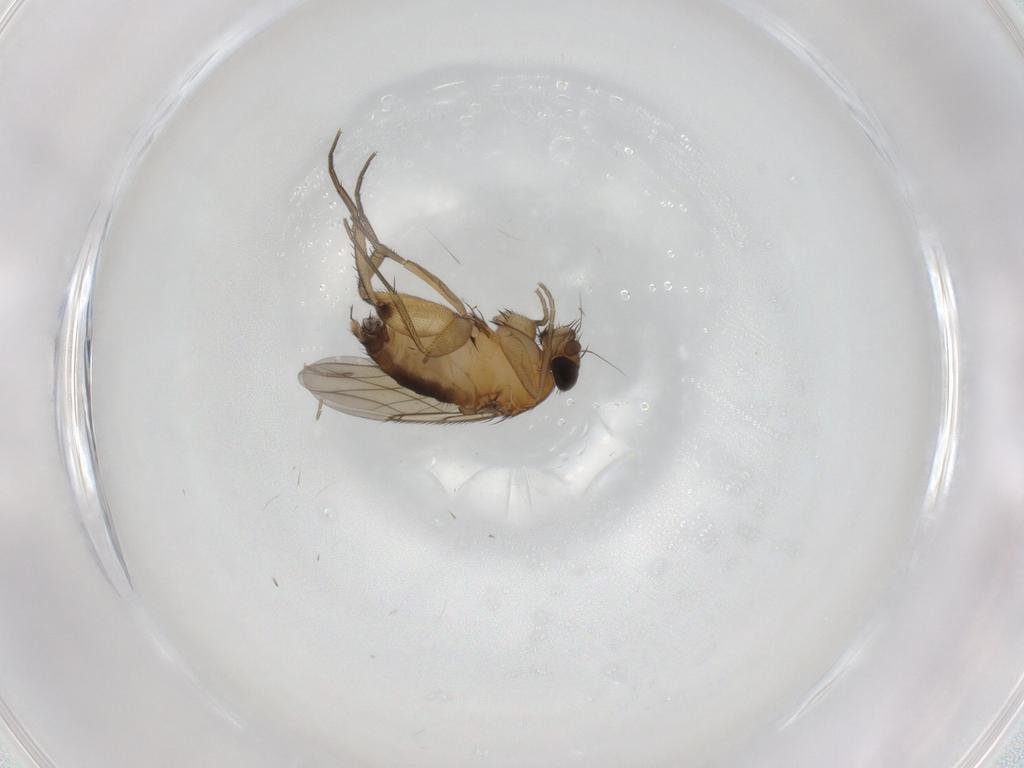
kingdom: Animalia
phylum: Arthropoda
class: Insecta
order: Diptera
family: Phoridae
